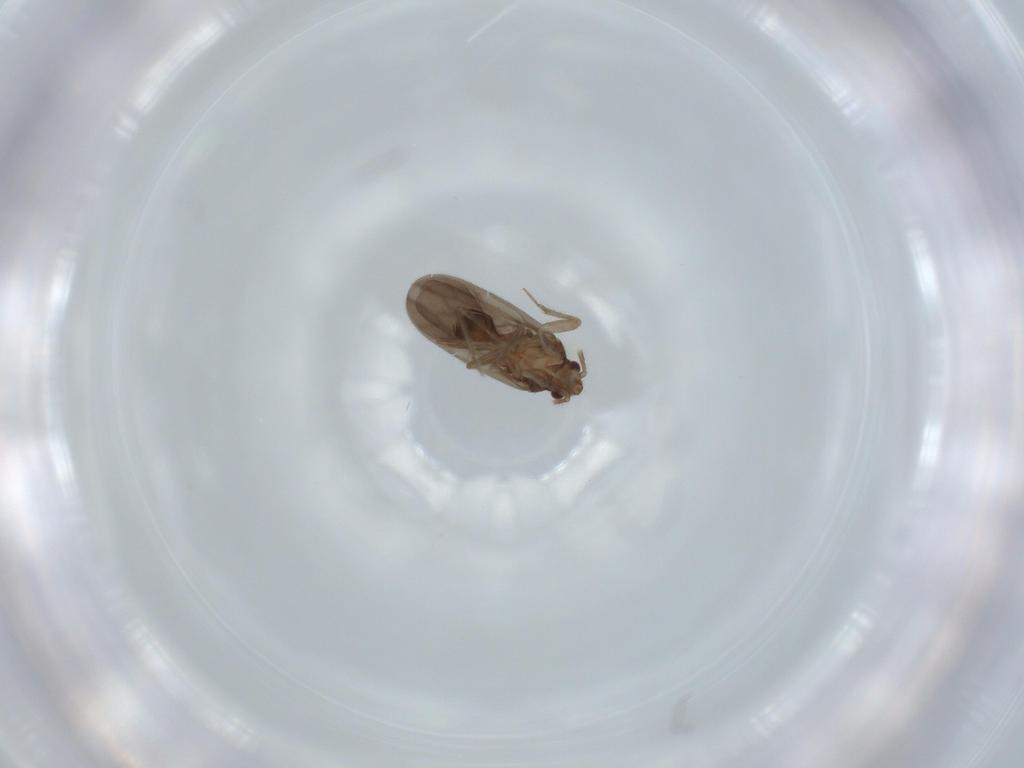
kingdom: Animalia
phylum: Arthropoda
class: Insecta
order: Hemiptera
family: Ceratocombidae
